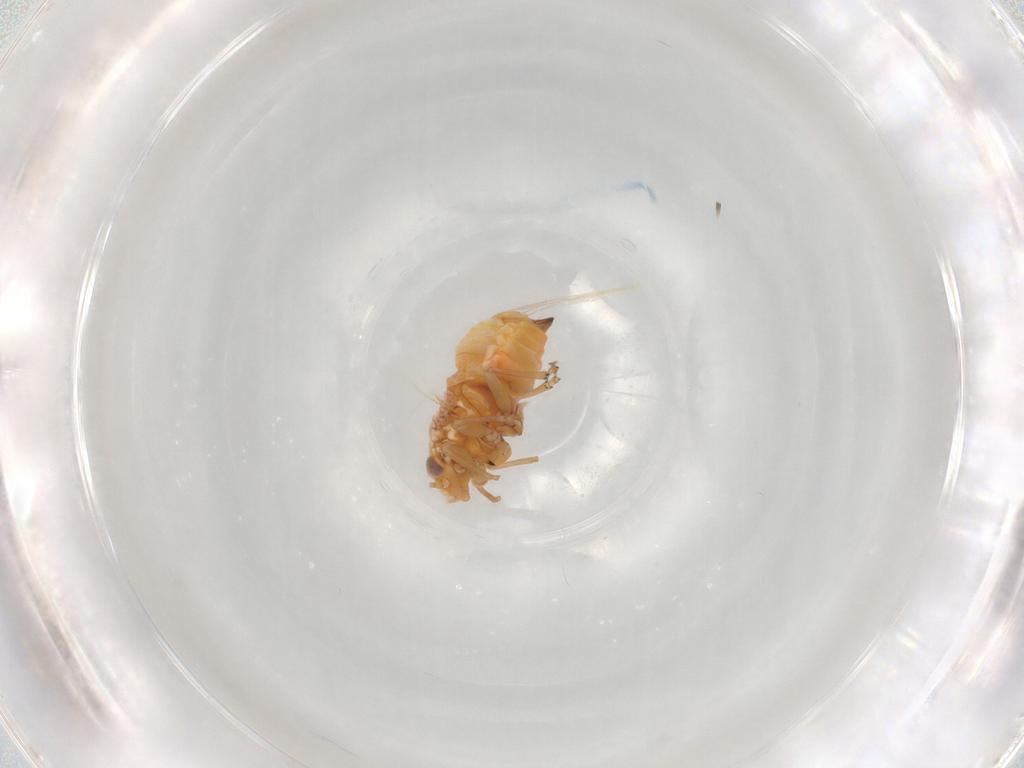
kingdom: Animalia
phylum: Arthropoda
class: Insecta
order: Hemiptera
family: Psyllidae
